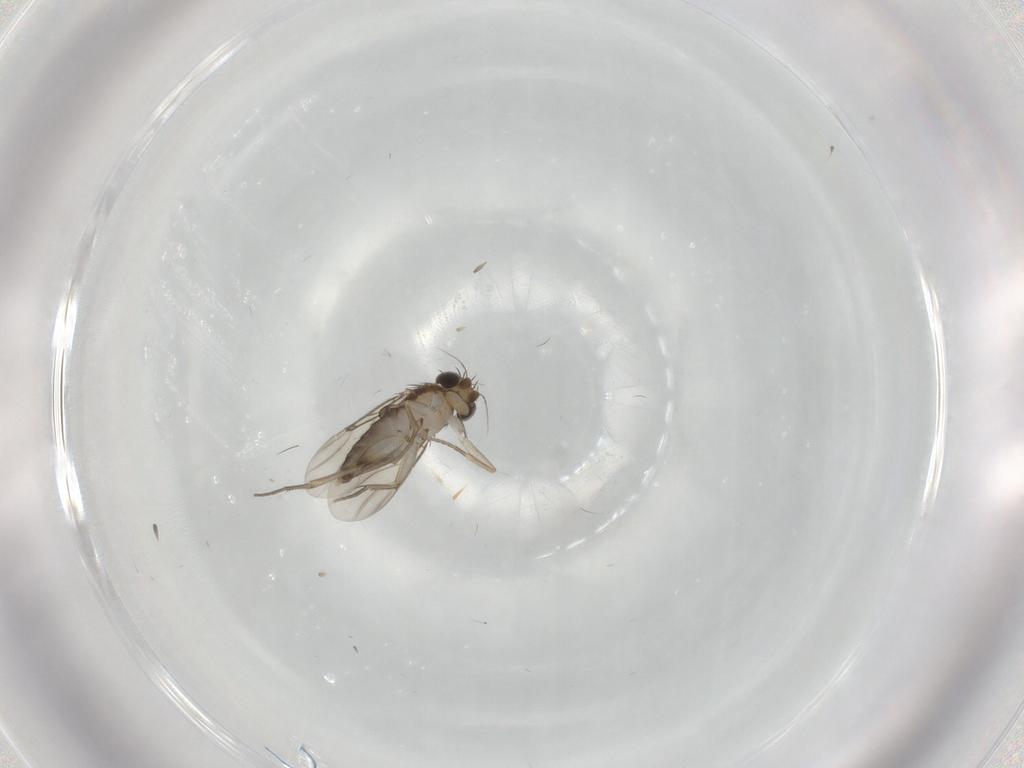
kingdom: Animalia
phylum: Arthropoda
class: Insecta
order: Diptera
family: Phoridae
